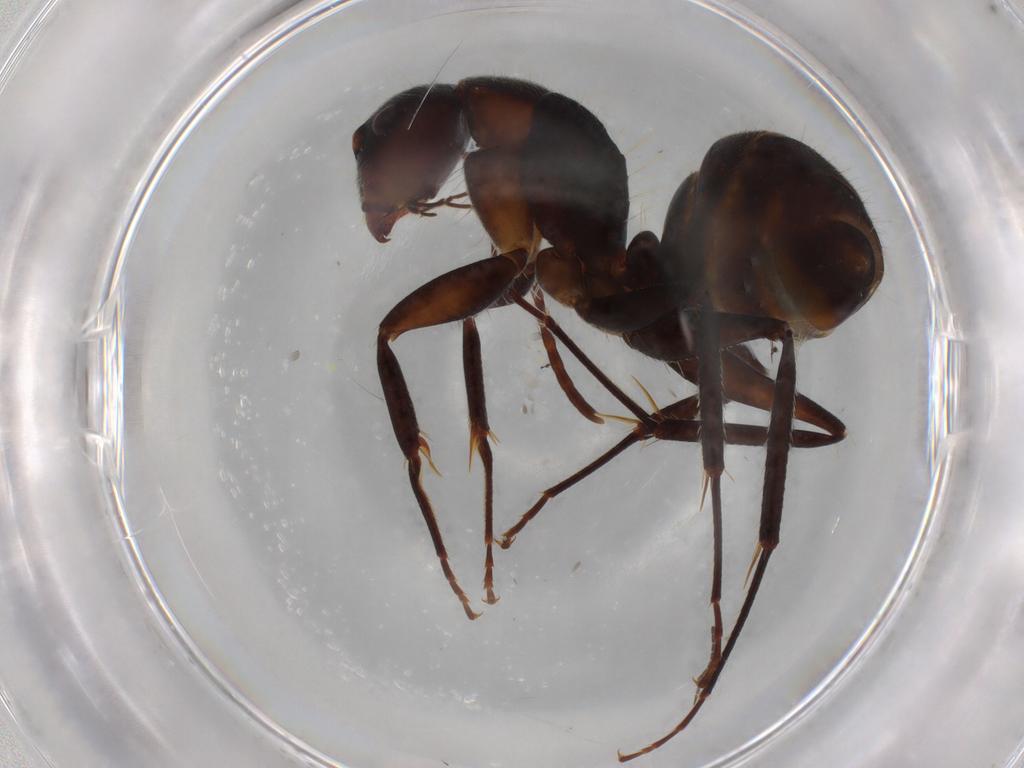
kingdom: Animalia
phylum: Arthropoda
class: Insecta
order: Hymenoptera
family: Formicidae
